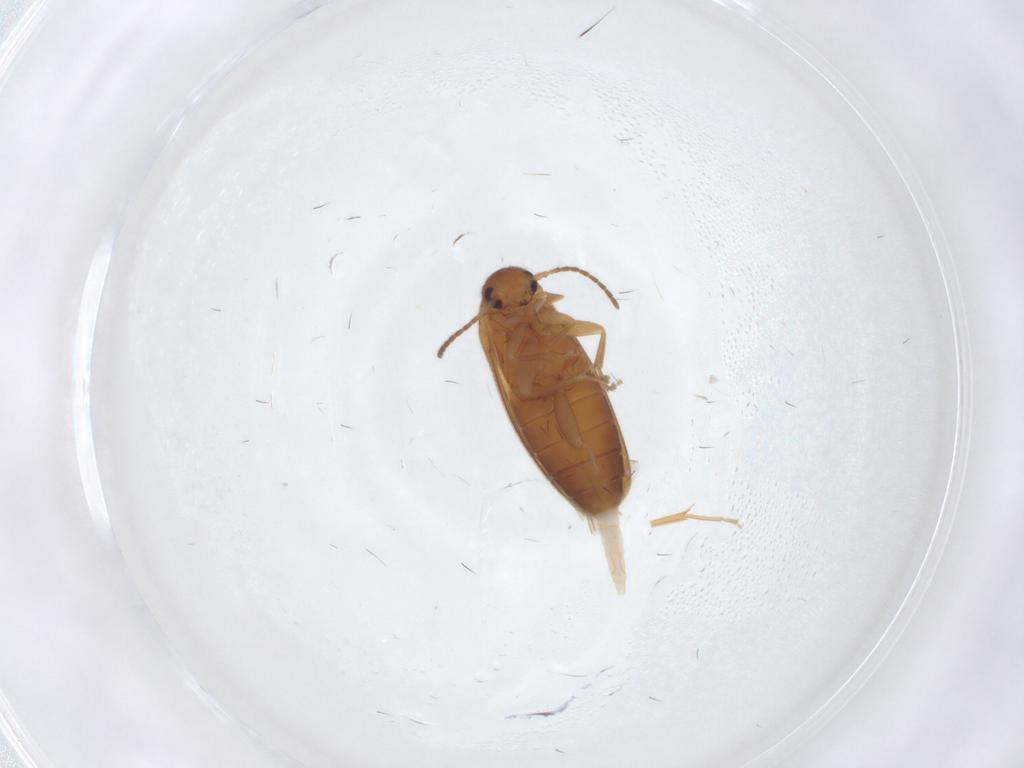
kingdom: Animalia
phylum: Arthropoda
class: Insecta
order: Coleoptera
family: Scraptiidae
